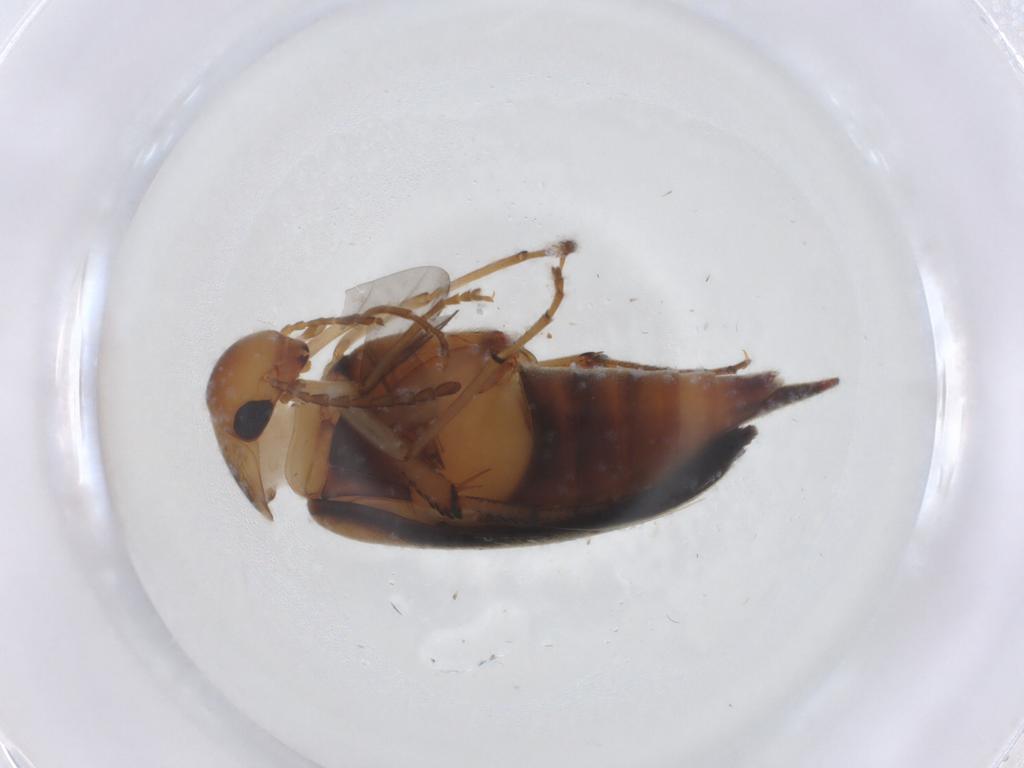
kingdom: Animalia
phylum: Arthropoda
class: Insecta
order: Coleoptera
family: Mordellidae
